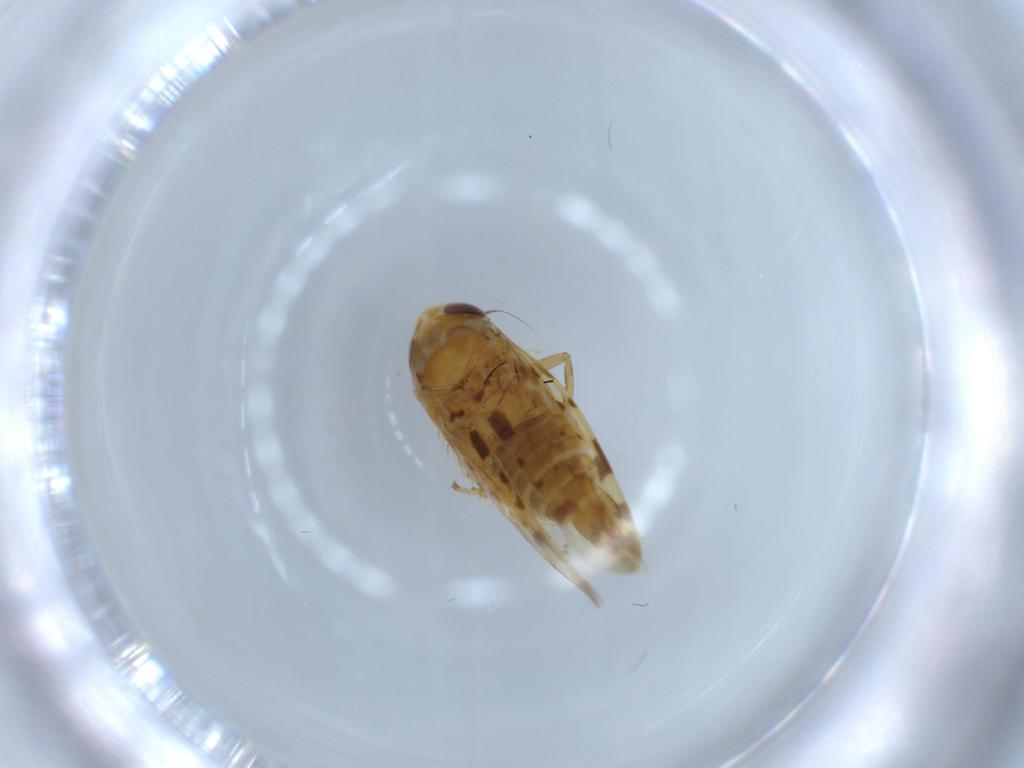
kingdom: Animalia
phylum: Arthropoda
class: Insecta
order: Hemiptera
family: Cicadellidae
